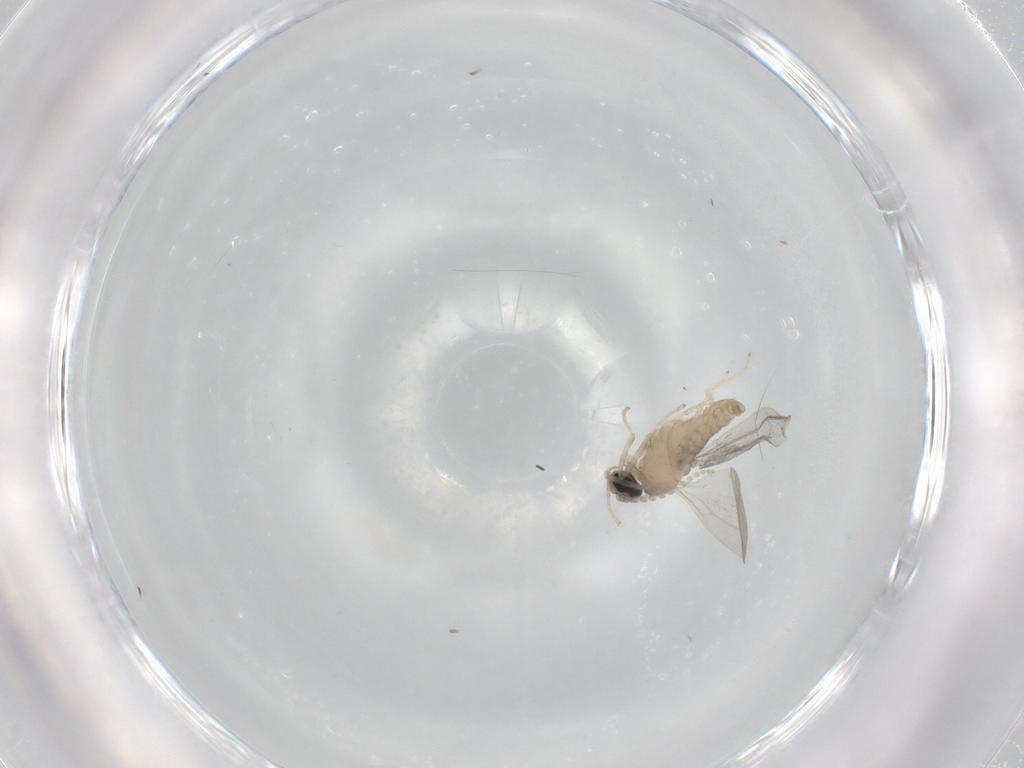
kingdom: Animalia
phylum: Arthropoda
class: Insecta
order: Diptera
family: Cecidomyiidae
